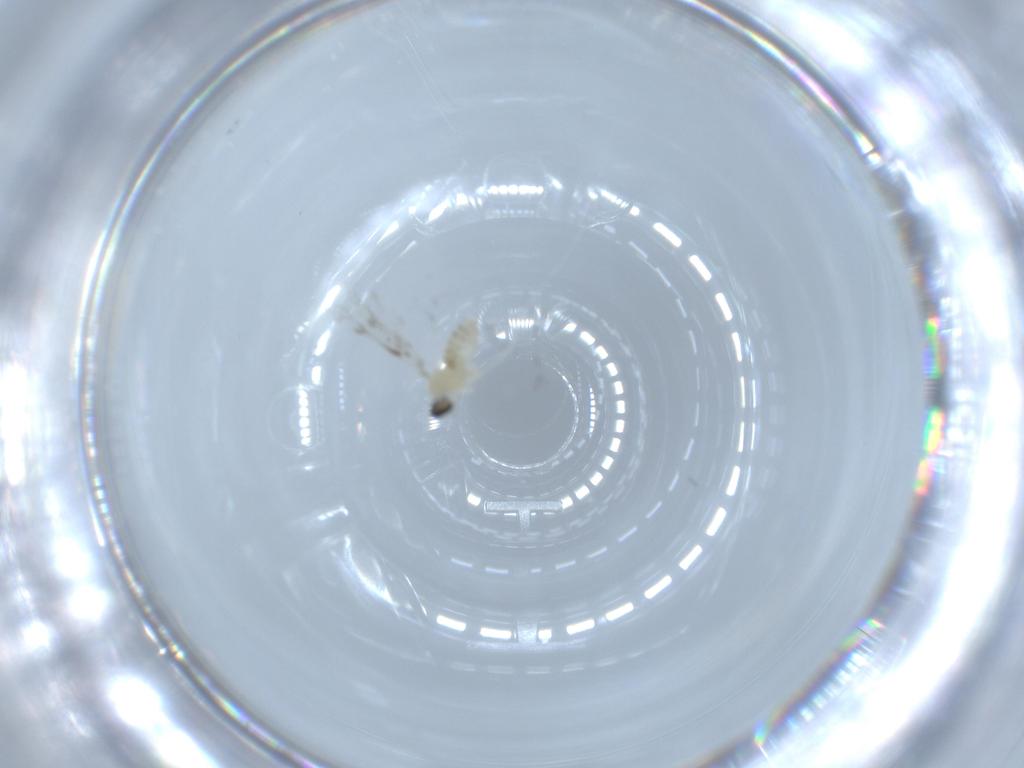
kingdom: Animalia
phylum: Arthropoda
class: Insecta
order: Diptera
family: Cecidomyiidae
